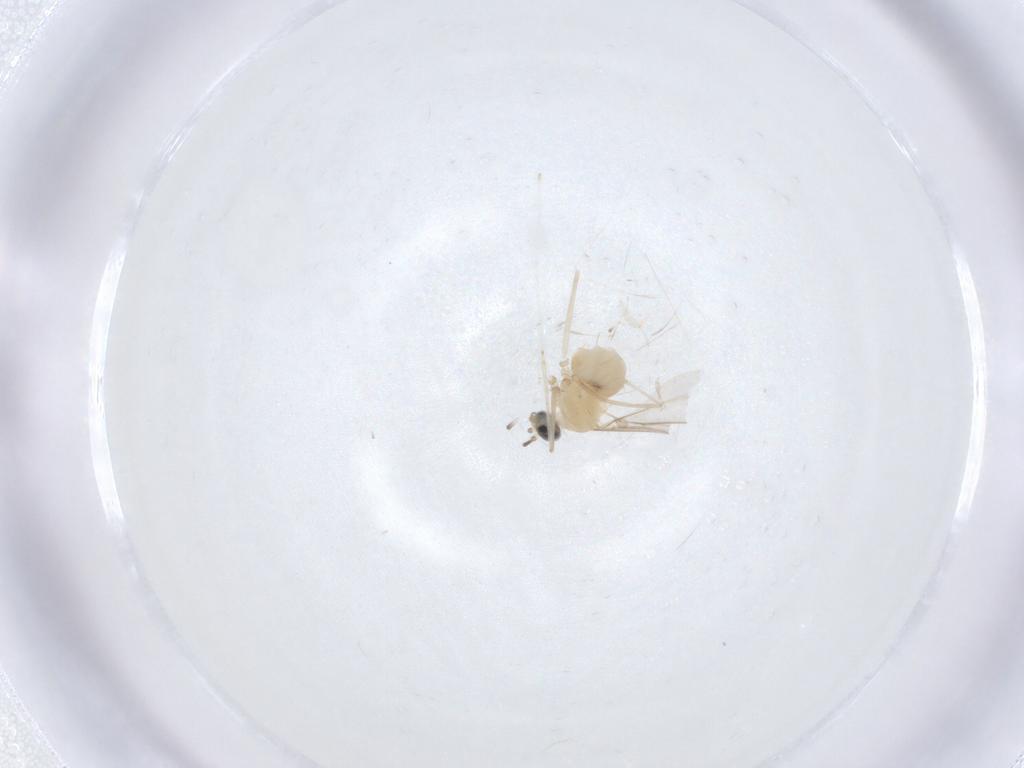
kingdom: Animalia
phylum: Arthropoda
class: Insecta
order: Diptera
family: Cecidomyiidae
